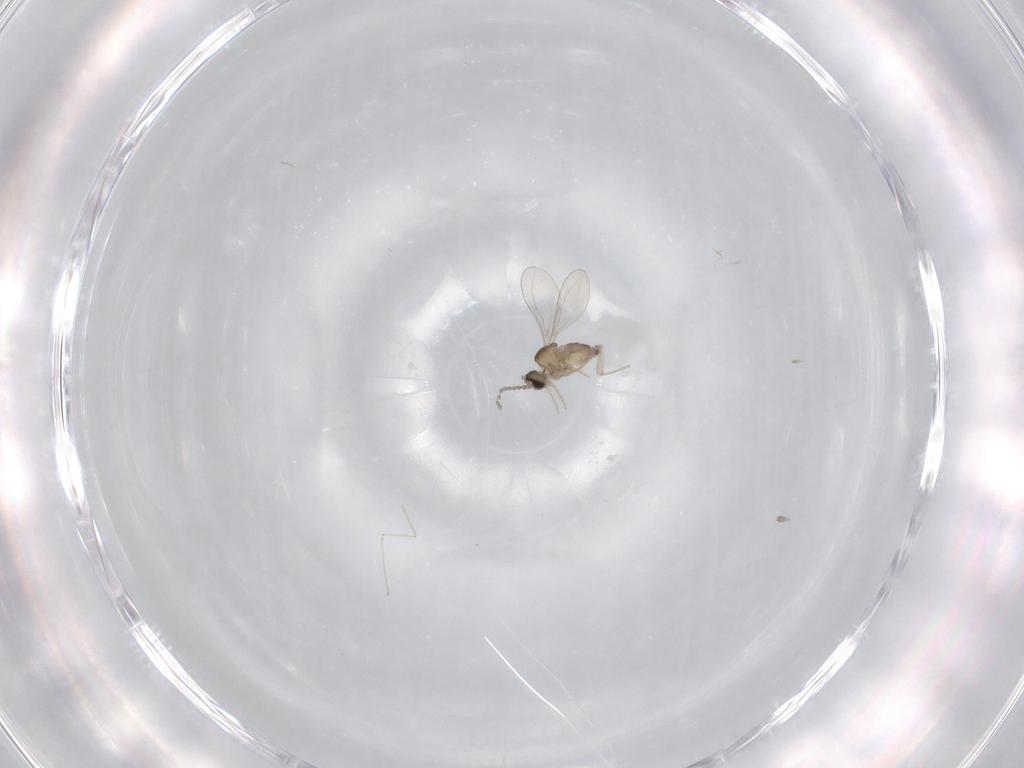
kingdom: Animalia
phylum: Arthropoda
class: Insecta
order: Diptera
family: Cecidomyiidae
